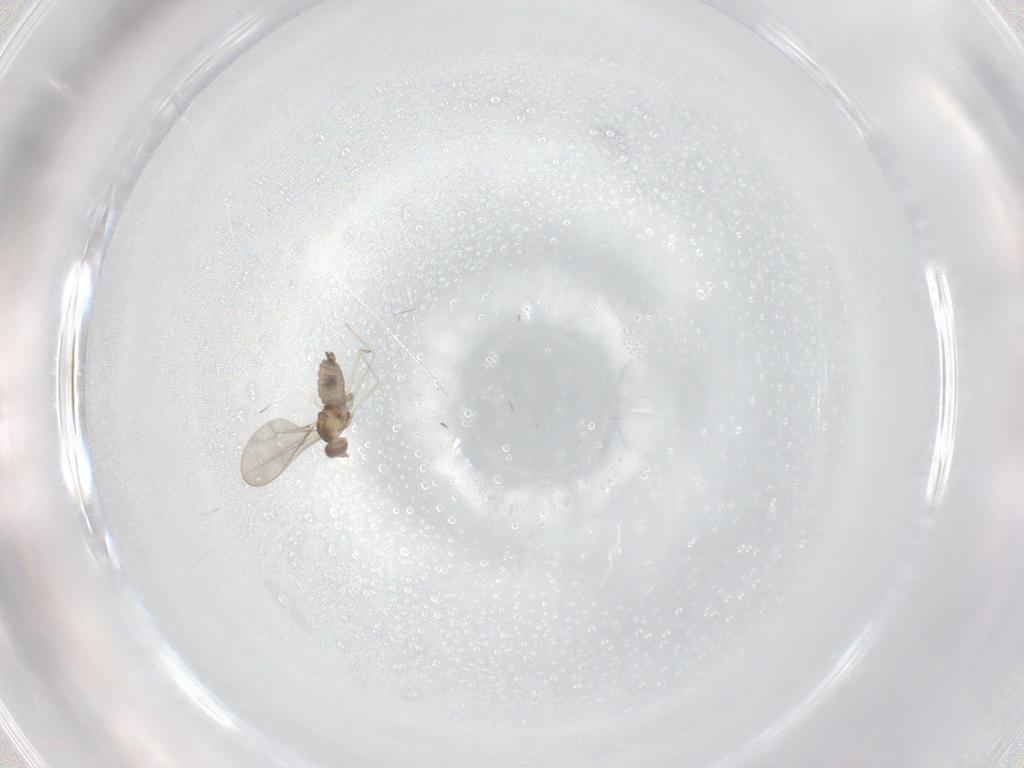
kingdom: Animalia
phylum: Arthropoda
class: Insecta
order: Diptera
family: Cecidomyiidae
